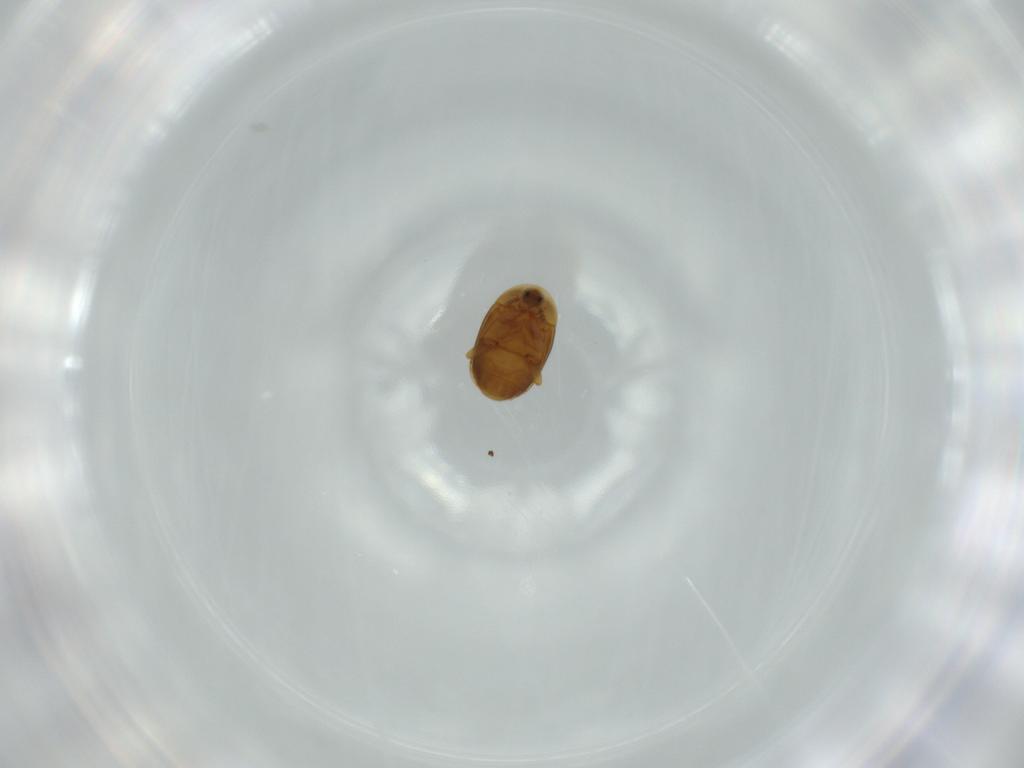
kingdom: Animalia
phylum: Arthropoda
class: Insecta
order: Coleoptera
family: Corylophidae
